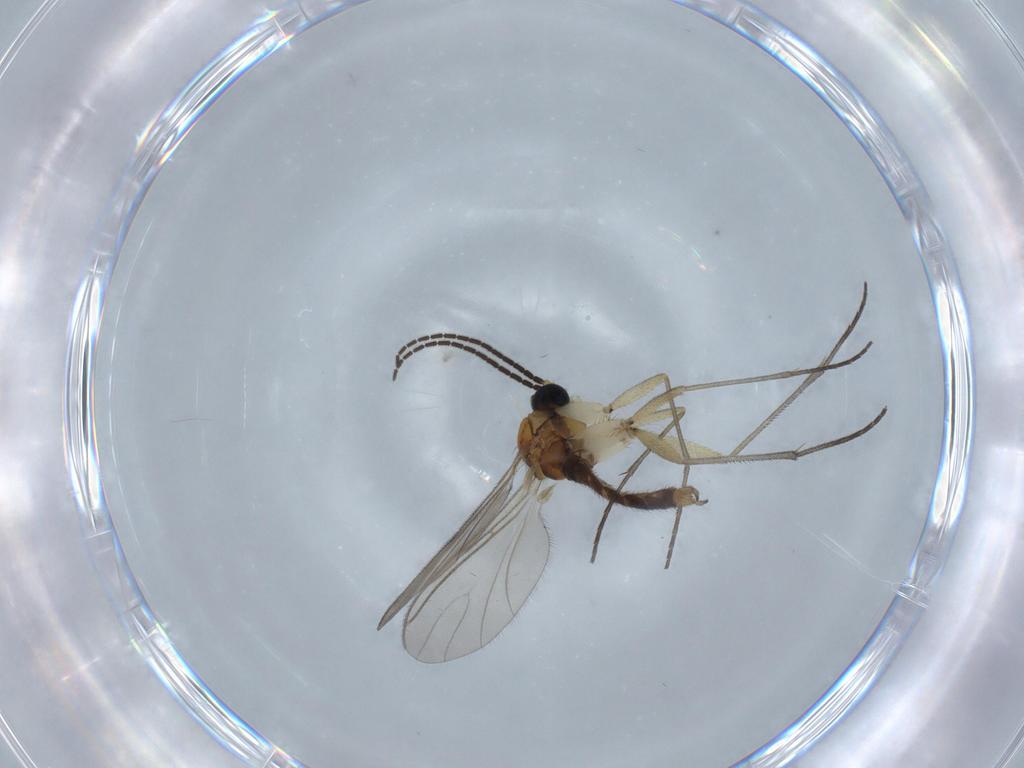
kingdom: Animalia
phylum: Arthropoda
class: Insecta
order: Diptera
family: Sciaridae
